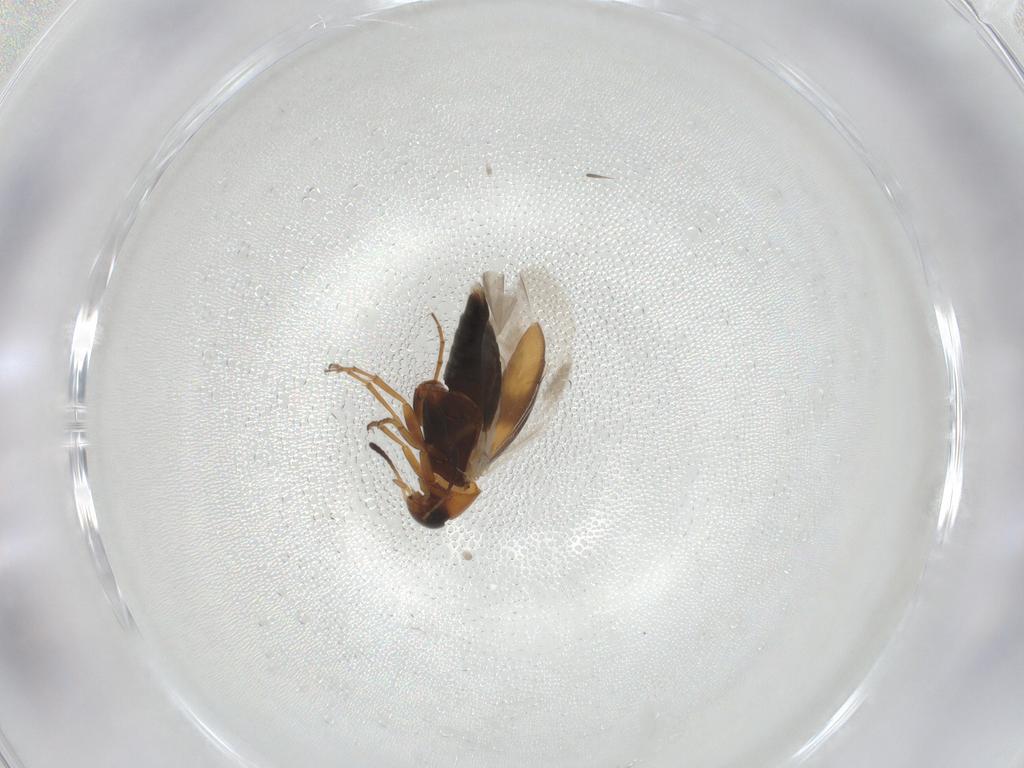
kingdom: Animalia
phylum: Arthropoda
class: Insecta
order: Coleoptera
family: Scraptiidae
